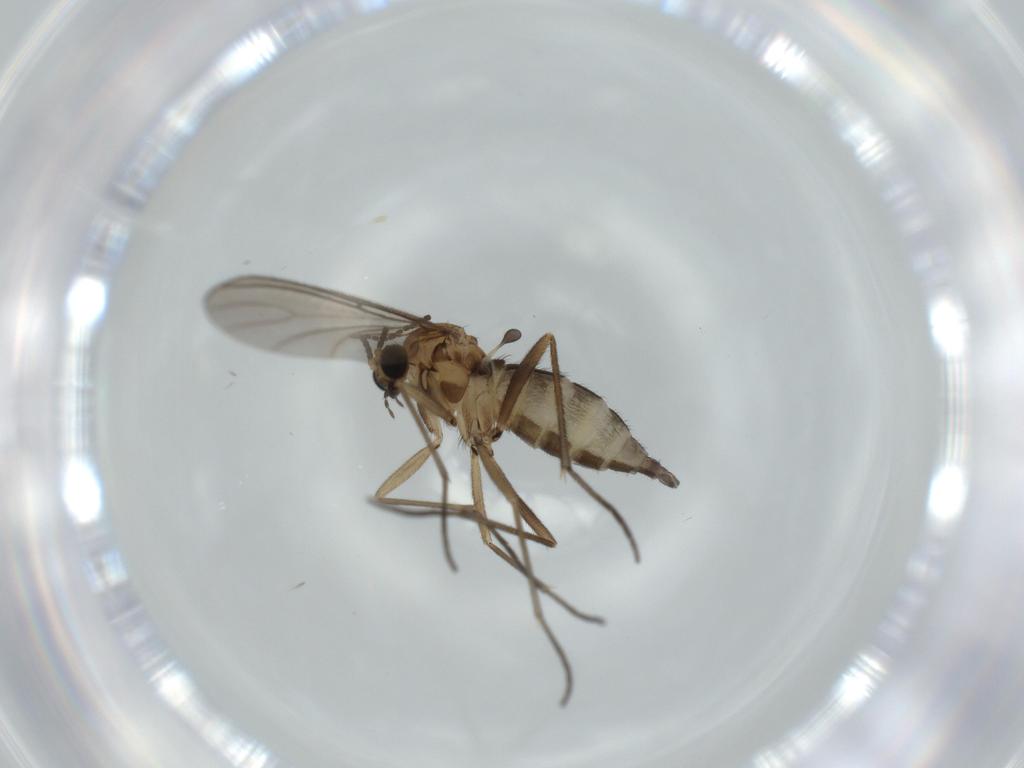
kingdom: Animalia
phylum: Arthropoda
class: Insecta
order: Diptera
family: Sciaridae
